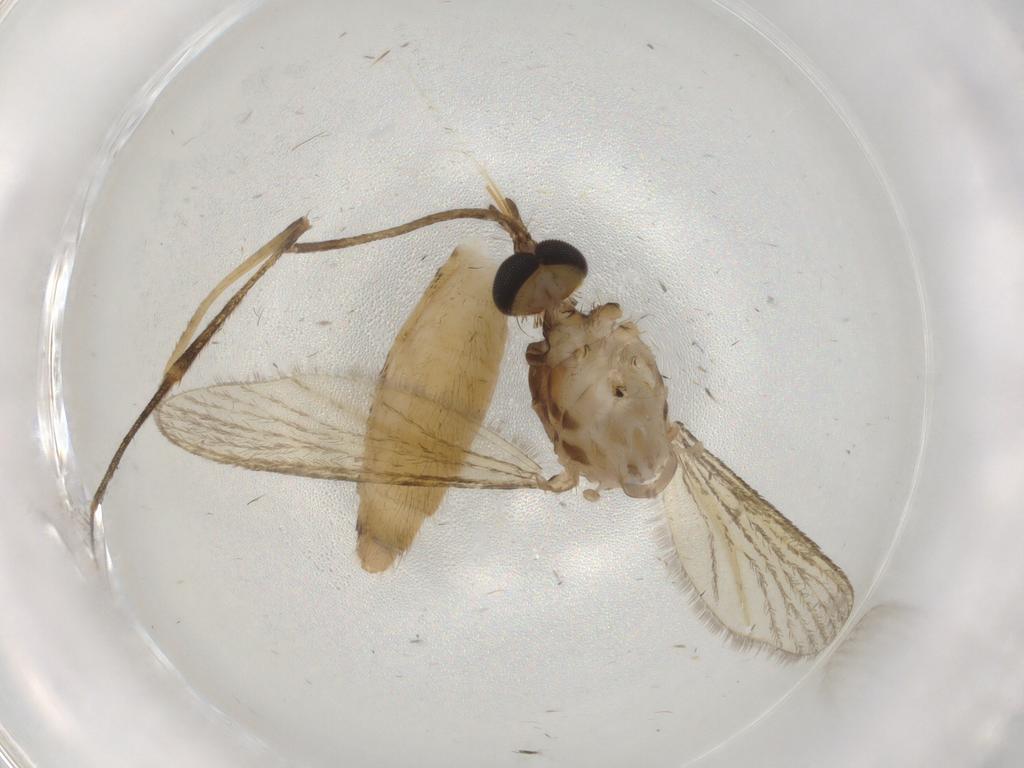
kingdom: Animalia
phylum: Arthropoda
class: Insecta
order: Diptera
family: Culicidae
